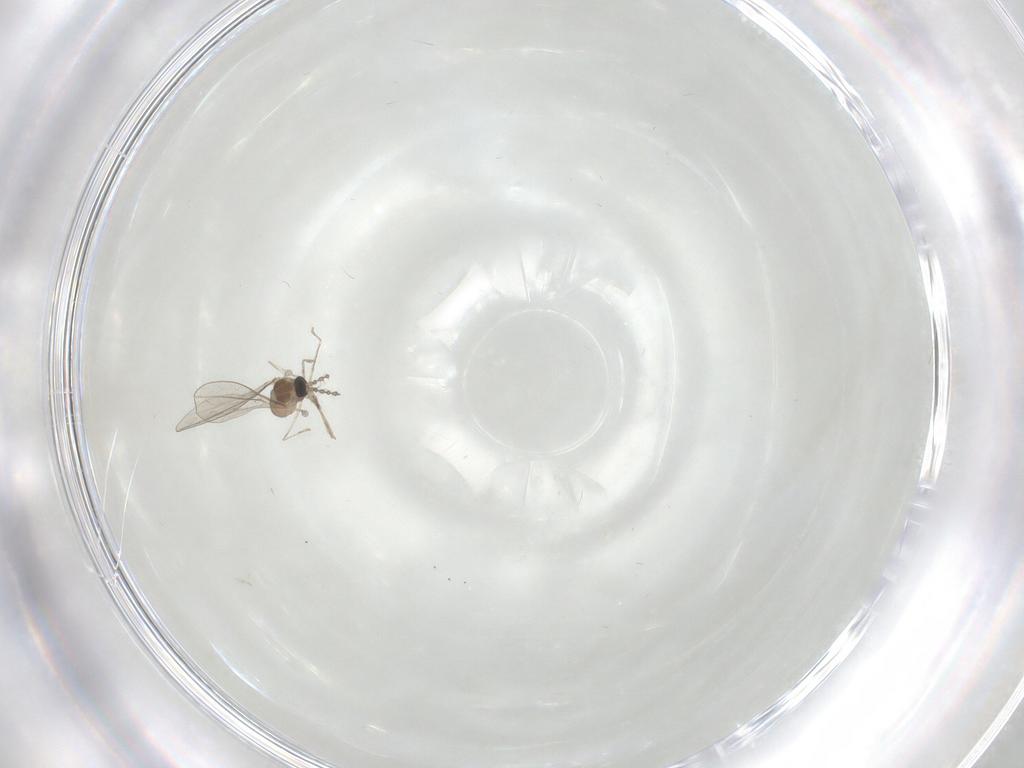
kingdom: Animalia
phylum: Arthropoda
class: Insecta
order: Diptera
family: Cecidomyiidae
